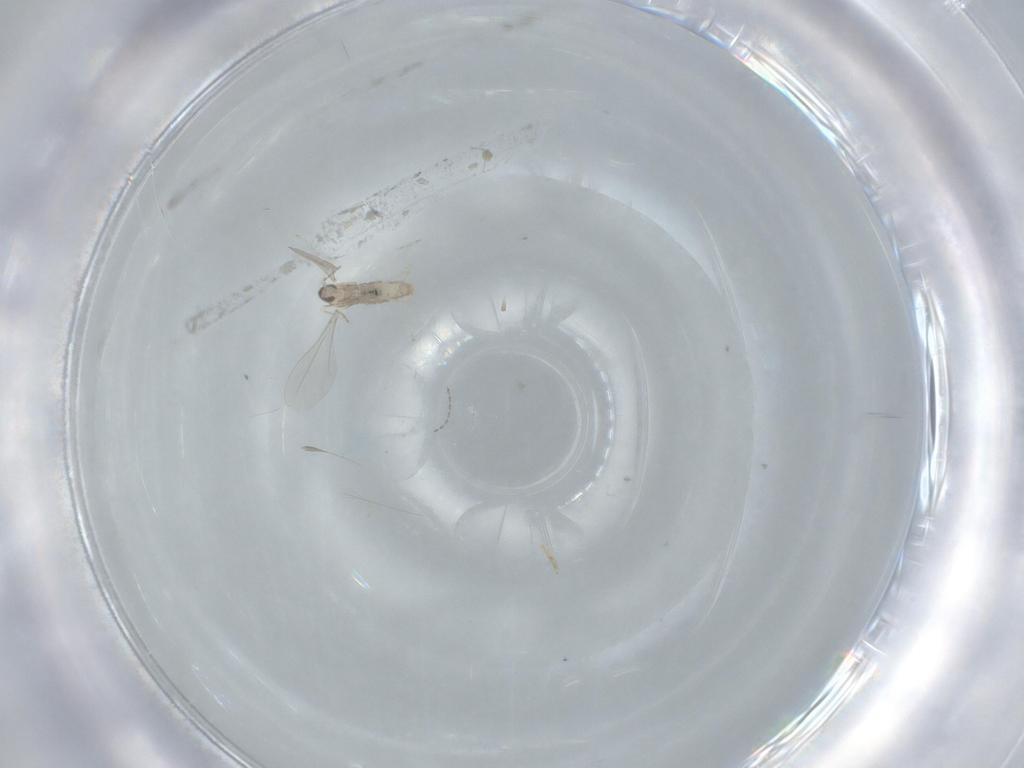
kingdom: Animalia
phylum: Arthropoda
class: Insecta
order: Diptera
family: Cecidomyiidae
